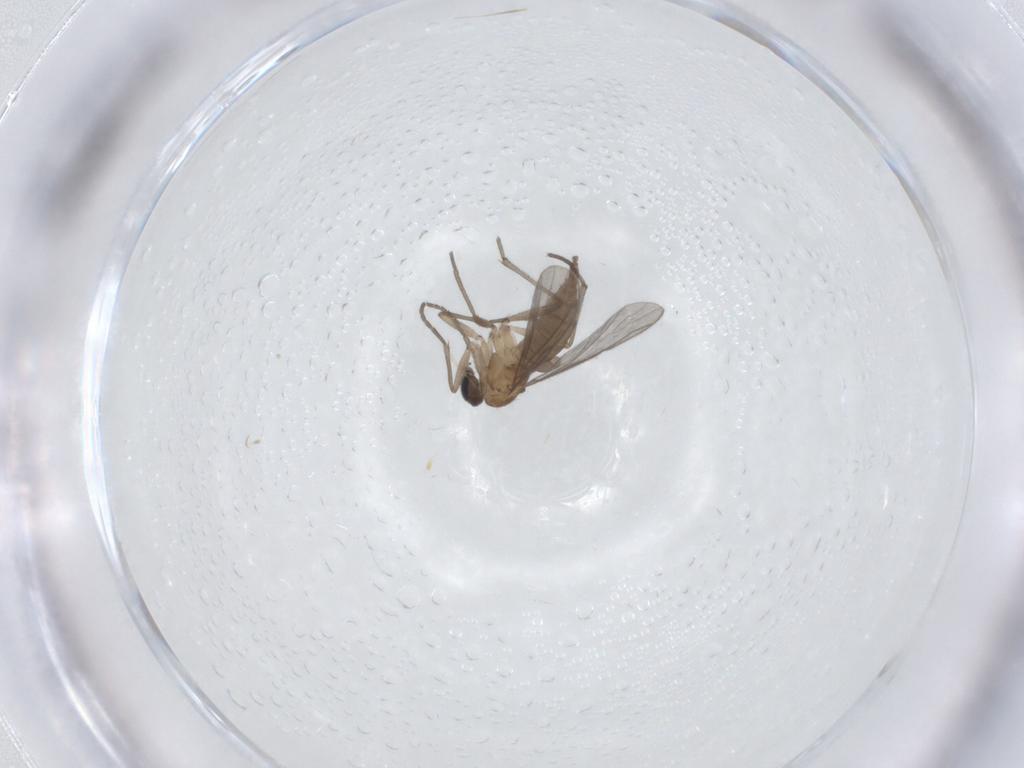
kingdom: Animalia
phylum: Arthropoda
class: Insecta
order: Diptera
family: Sciaridae
